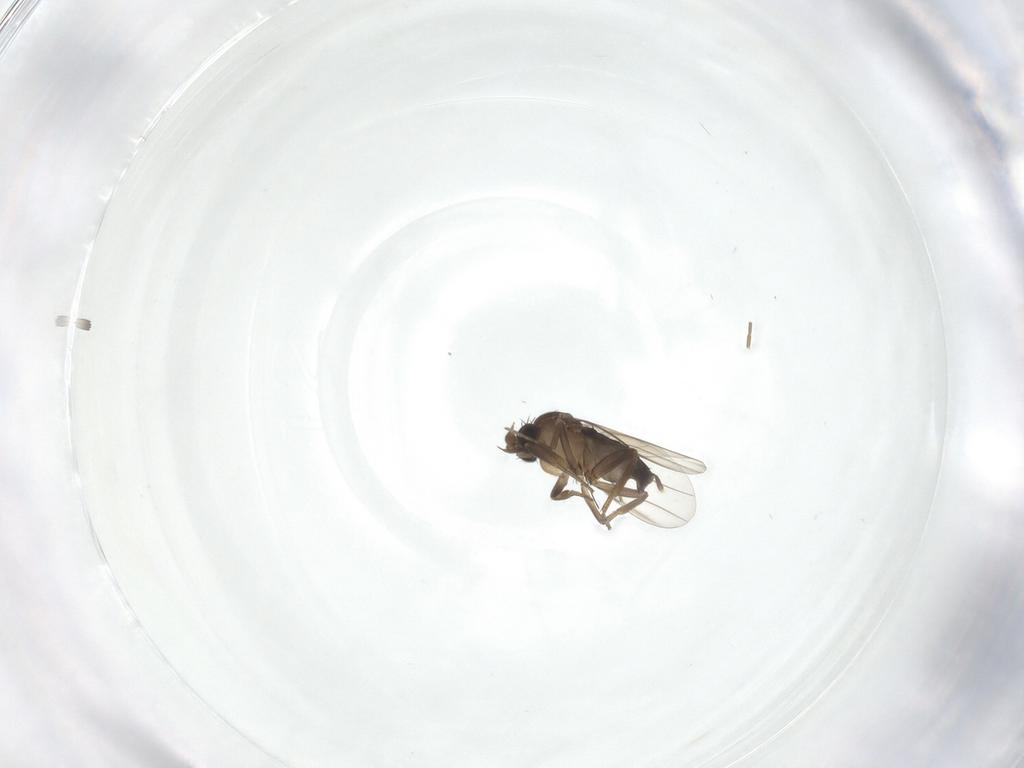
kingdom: Animalia
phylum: Arthropoda
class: Insecta
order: Diptera
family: Phoridae
